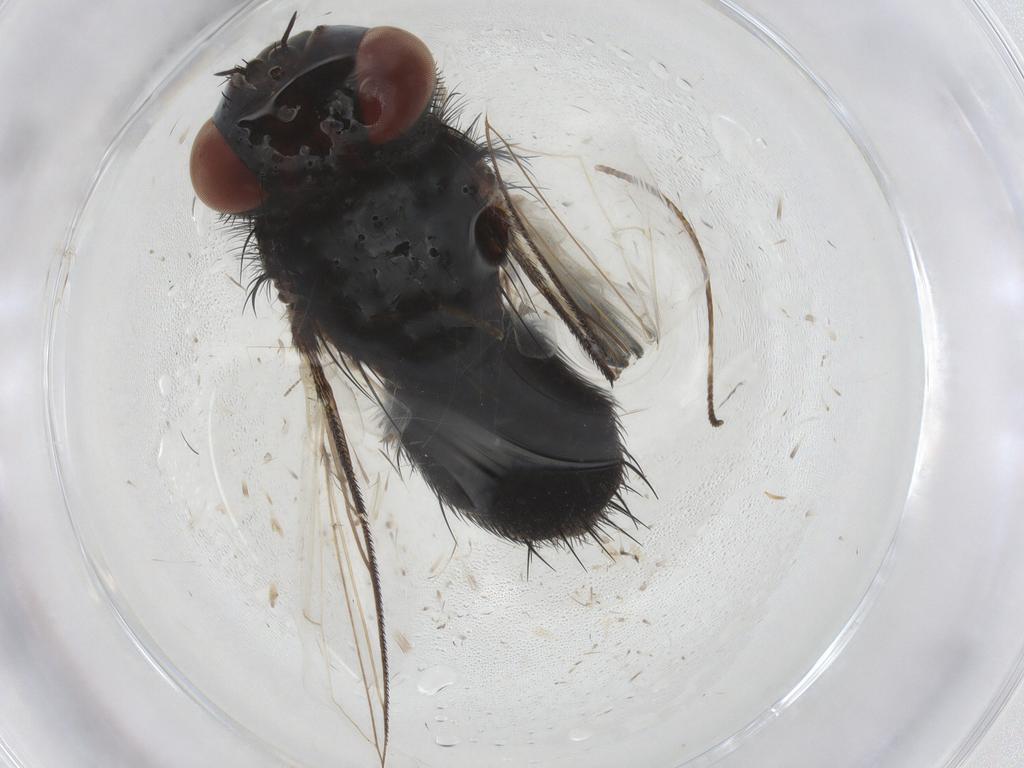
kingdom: Animalia
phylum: Arthropoda
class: Insecta
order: Diptera
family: Tachinidae
